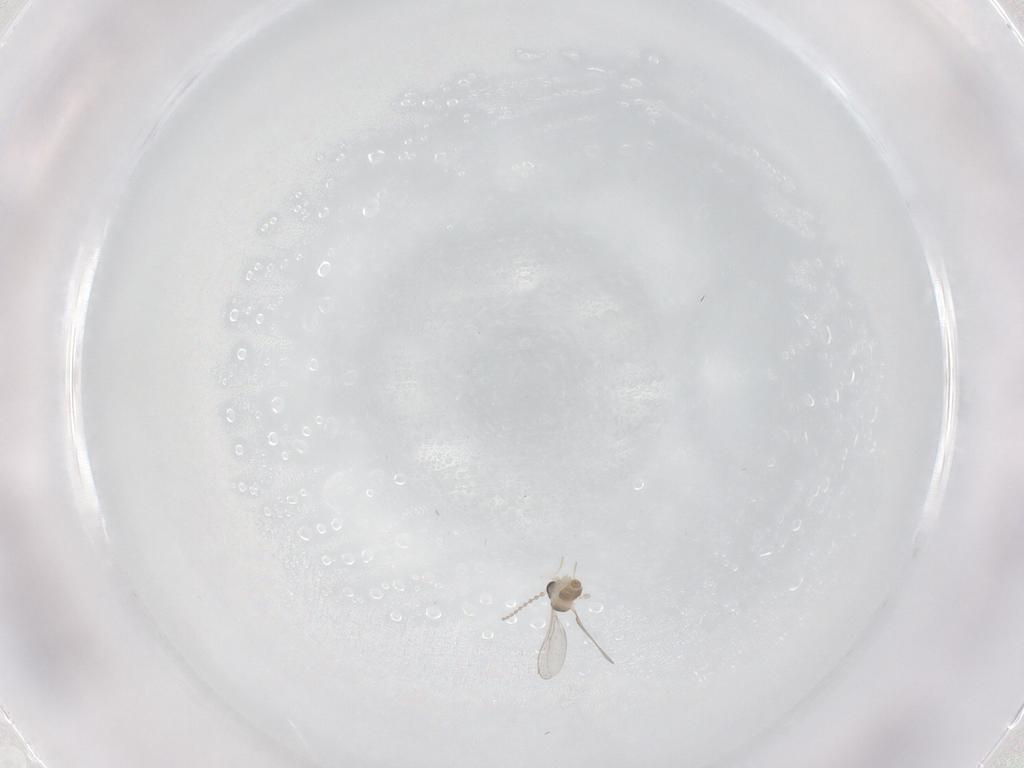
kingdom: Animalia
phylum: Arthropoda
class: Insecta
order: Diptera
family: Cecidomyiidae
